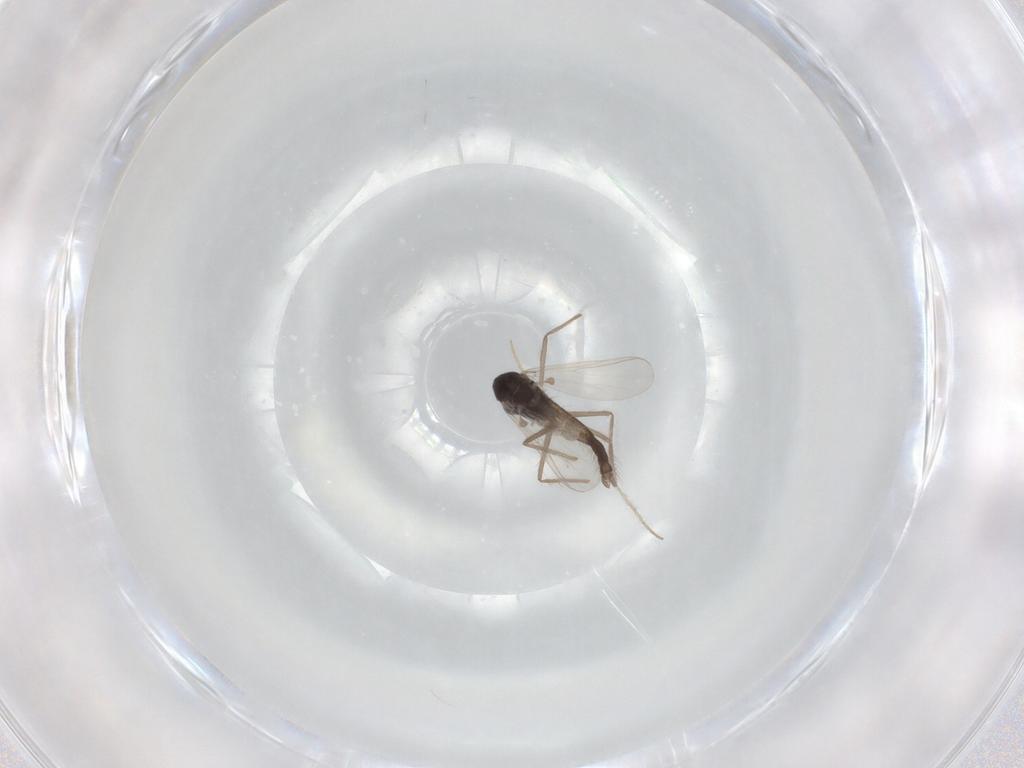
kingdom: Animalia
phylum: Arthropoda
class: Insecta
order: Diptera
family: Chironomidae
